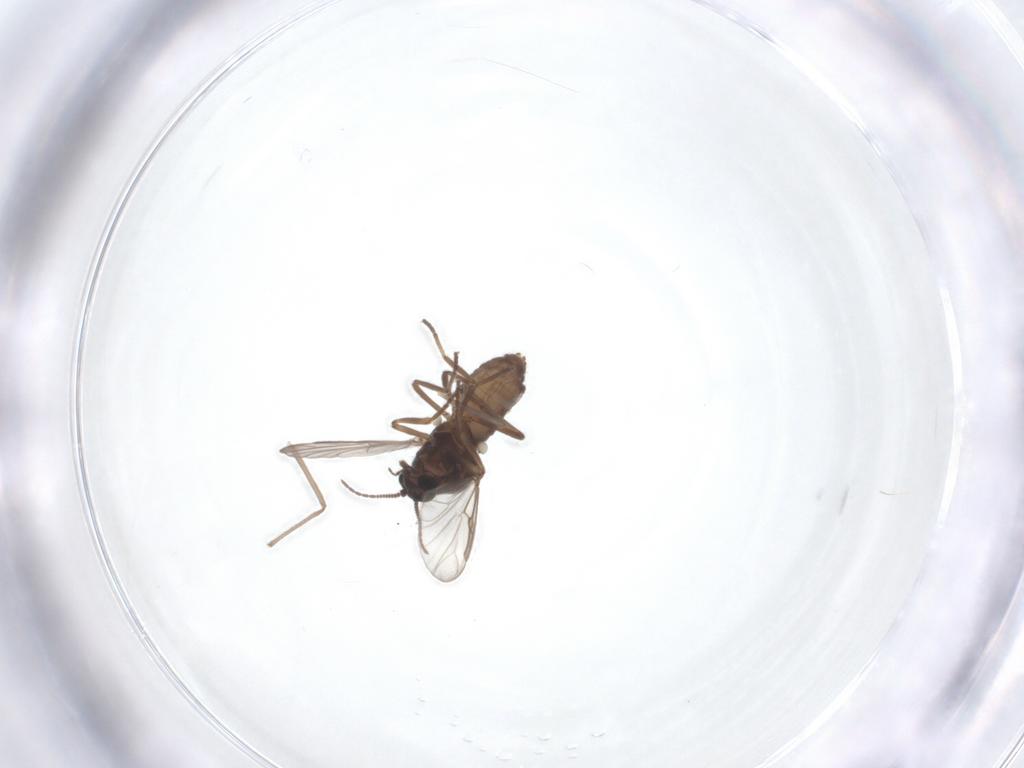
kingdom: Animalia
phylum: Arthropoda
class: Insecta
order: Diptera
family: Ceratopogonidae
